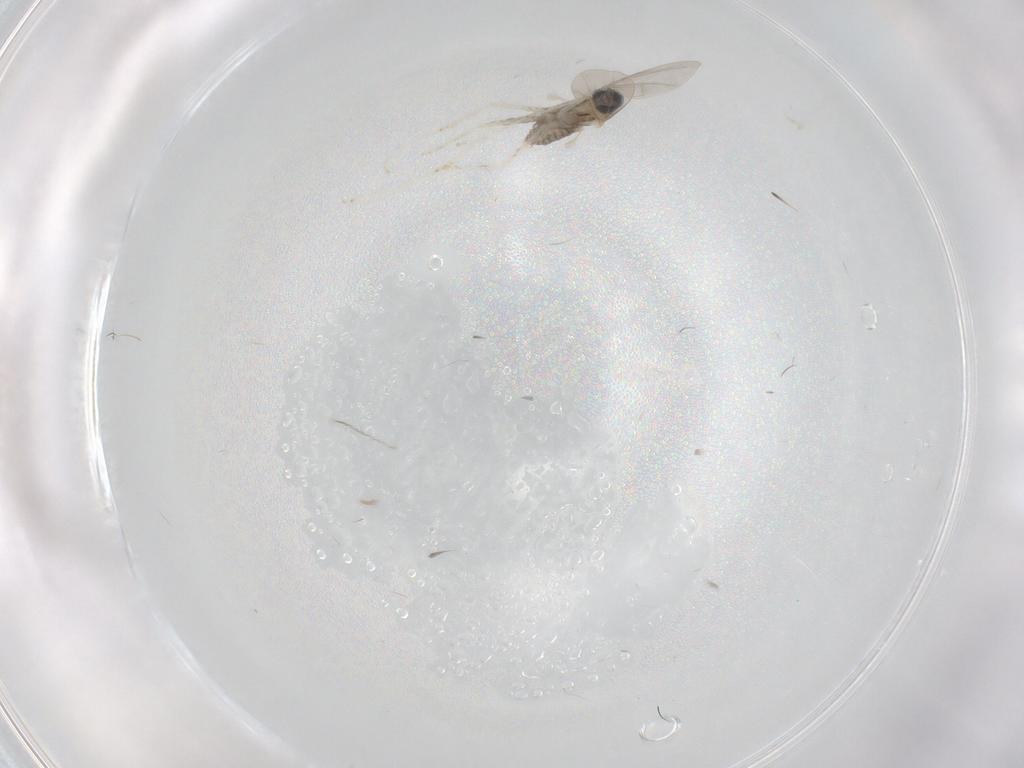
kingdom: Animalia
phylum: Arthropoda
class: Insecta
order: Diptera
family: Cecidomyiidae
